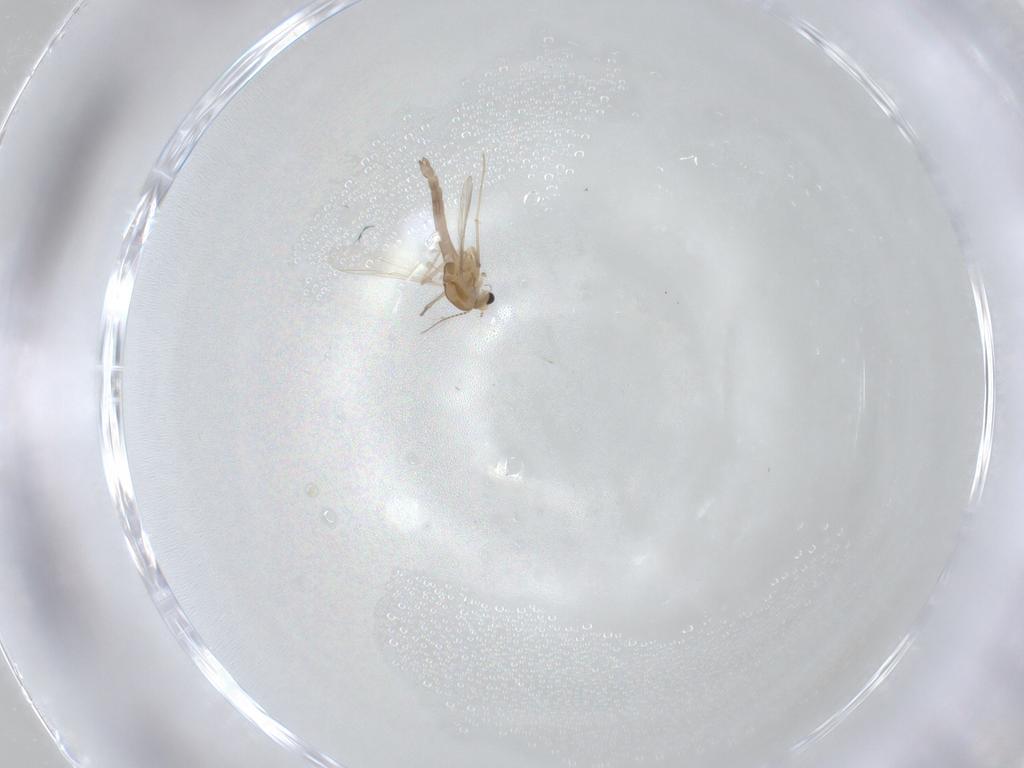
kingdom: Animalia
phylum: Arthropoda
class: Insecta
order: Diptera
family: Chironomidae
